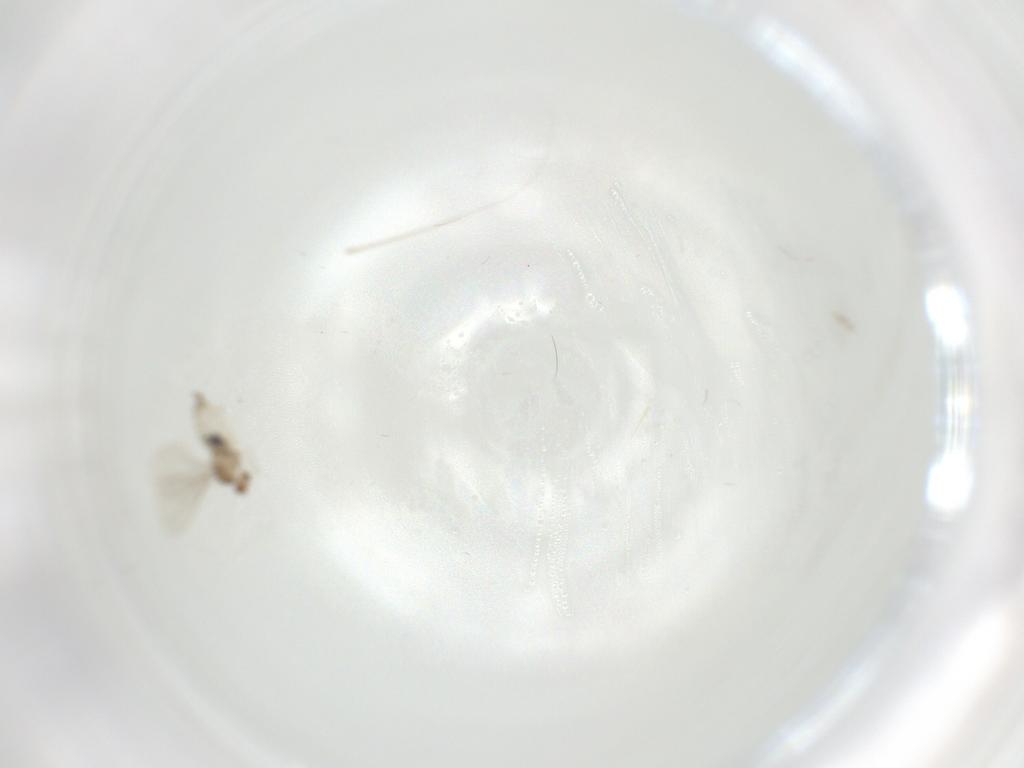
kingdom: Animalia
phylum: Arthropoda
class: Insecta
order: Diptera
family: Cecidomyiidae
